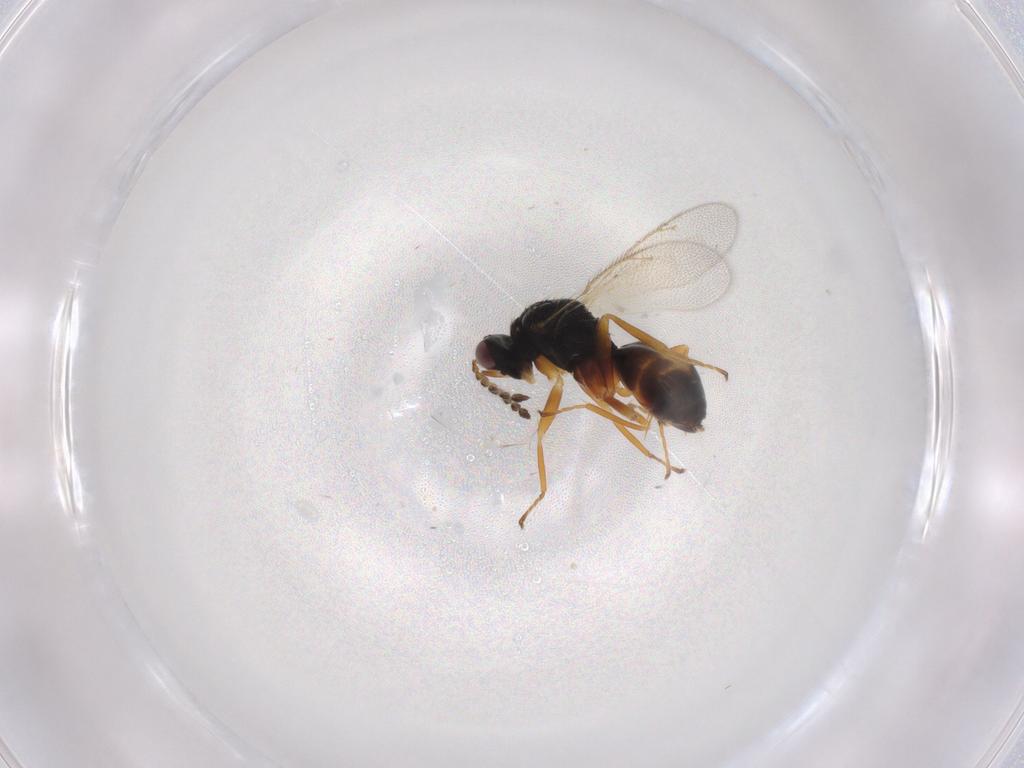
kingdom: Animalia
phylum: Arthropoda
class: Insecta
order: Hymenoptera
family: Eulophidae
